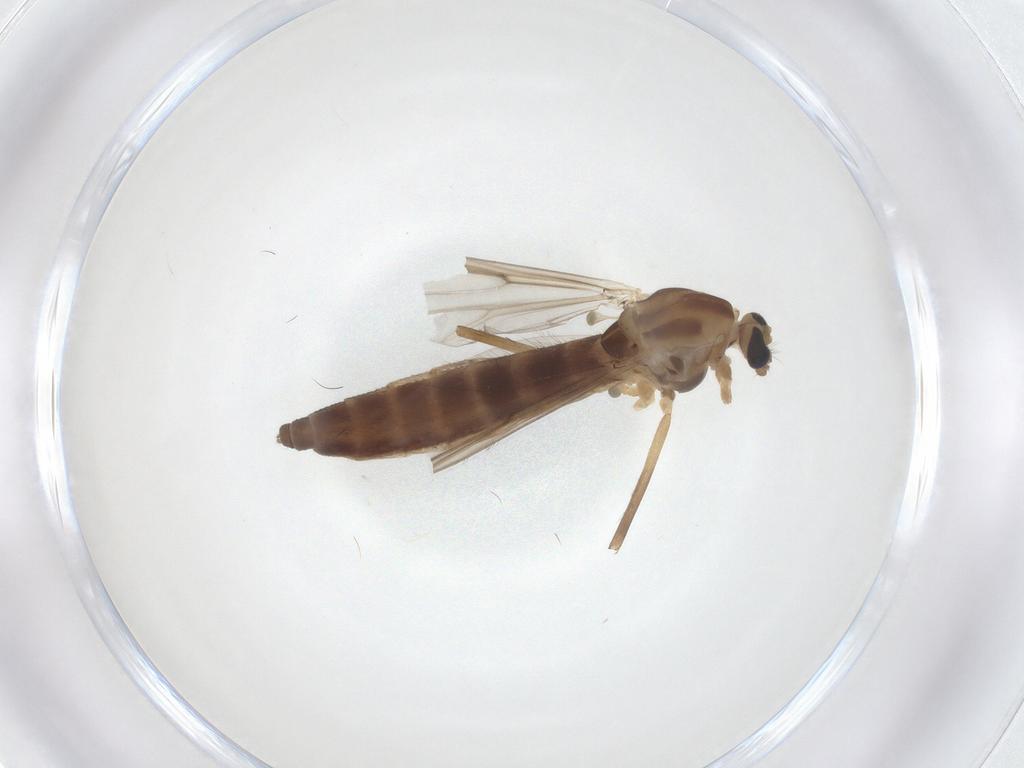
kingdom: Animalia
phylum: Arthropoda
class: Insecta
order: Diptera
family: Chironomidae
